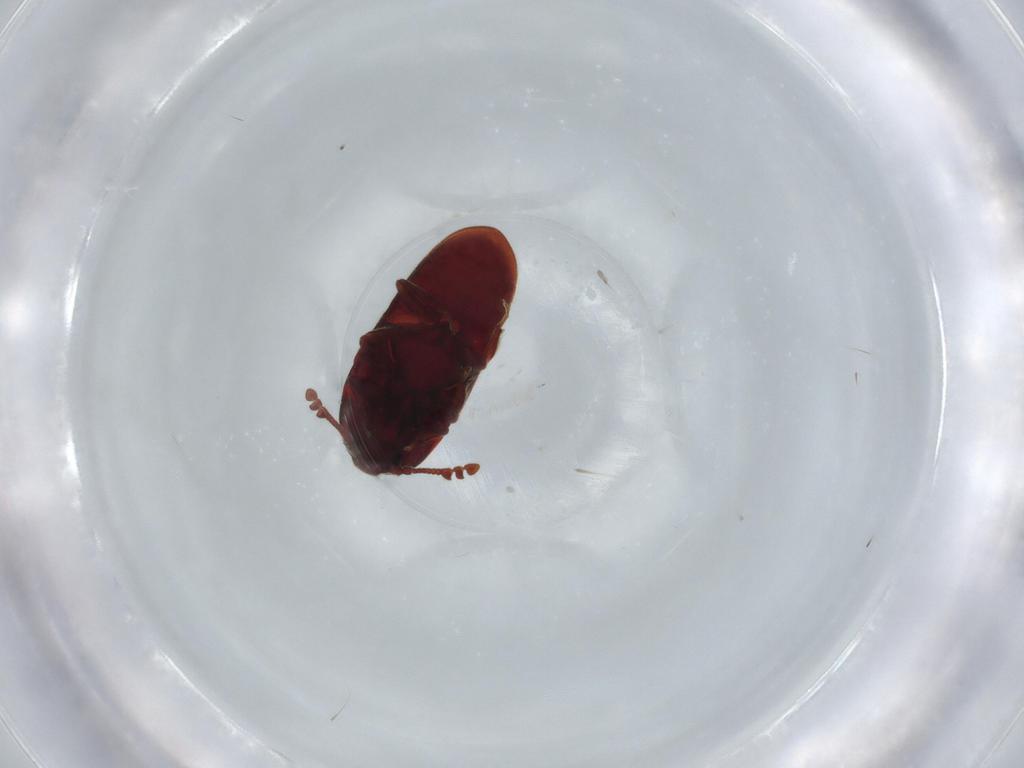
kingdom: Animalia
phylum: Arthropoda
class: Insecta
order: Coleoptera
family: Throscidae
